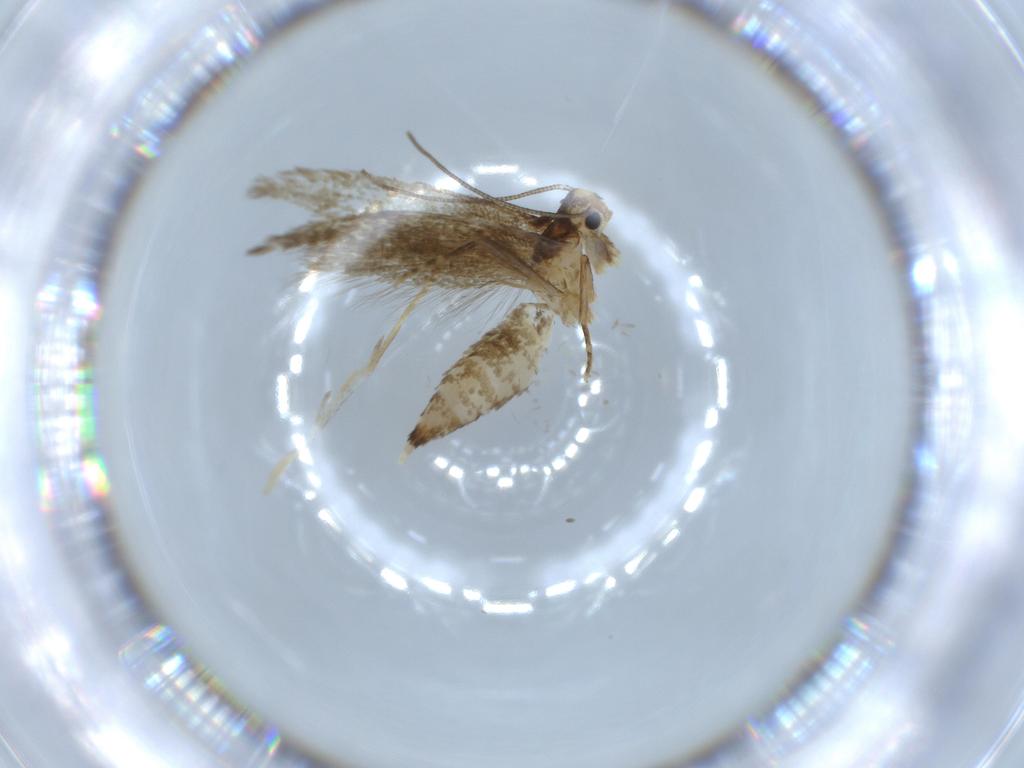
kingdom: Animalia
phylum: Arthropoda
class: Insecta
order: Lepidoptera
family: Tineidae
